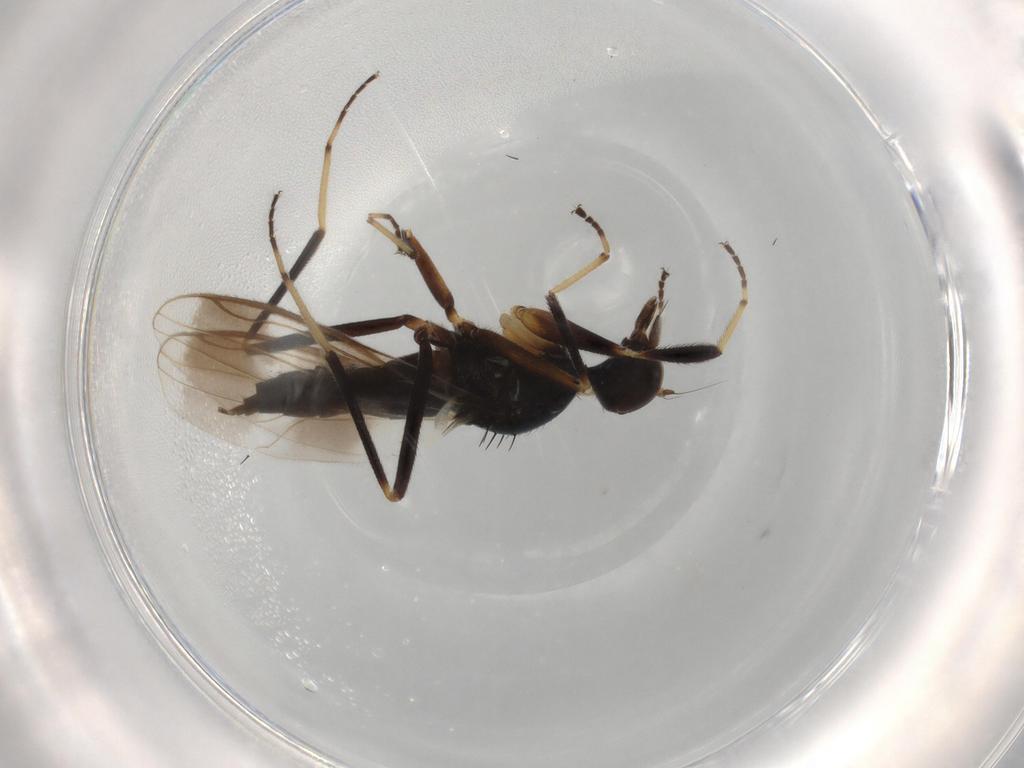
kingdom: Animalia
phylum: Arthropoda
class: Insecta
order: Diptera
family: Hybotidae
